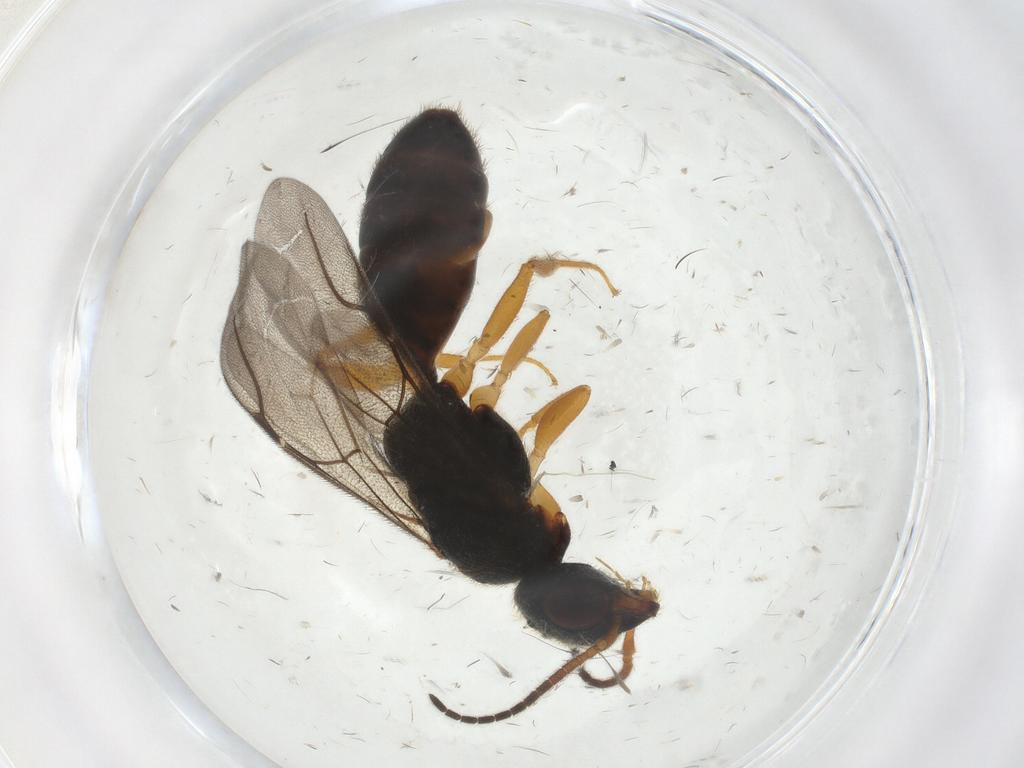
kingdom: Animalia
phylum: Arthropoda
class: Insecta
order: Hymenoptera
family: Bethylidae
